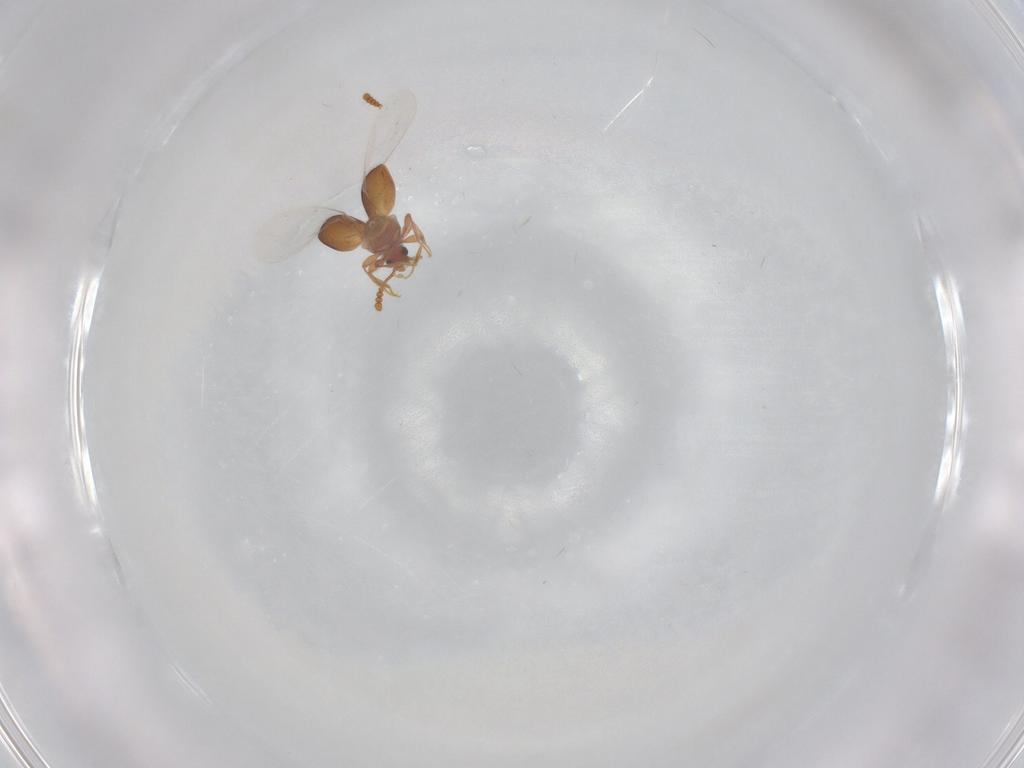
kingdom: Animalia
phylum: Arthropoda
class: Insecta
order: Coleoptera
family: Staphylinidae
